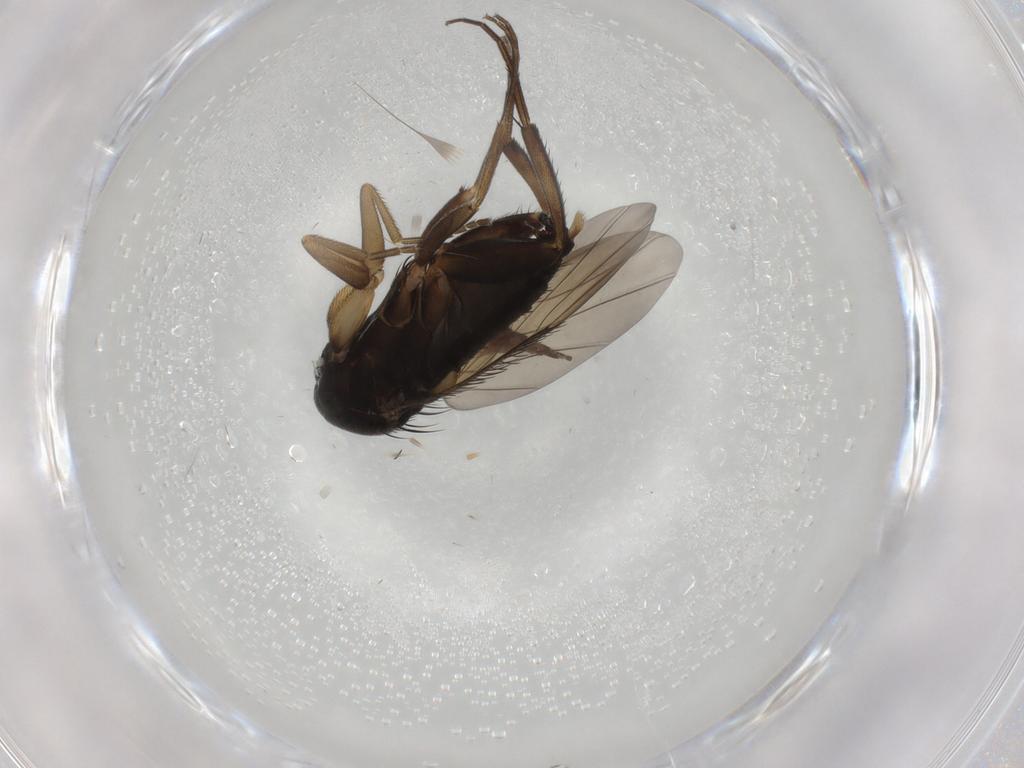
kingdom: Animalia
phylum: Arthropoda
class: Insecta
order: Diptera
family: Phoridae
